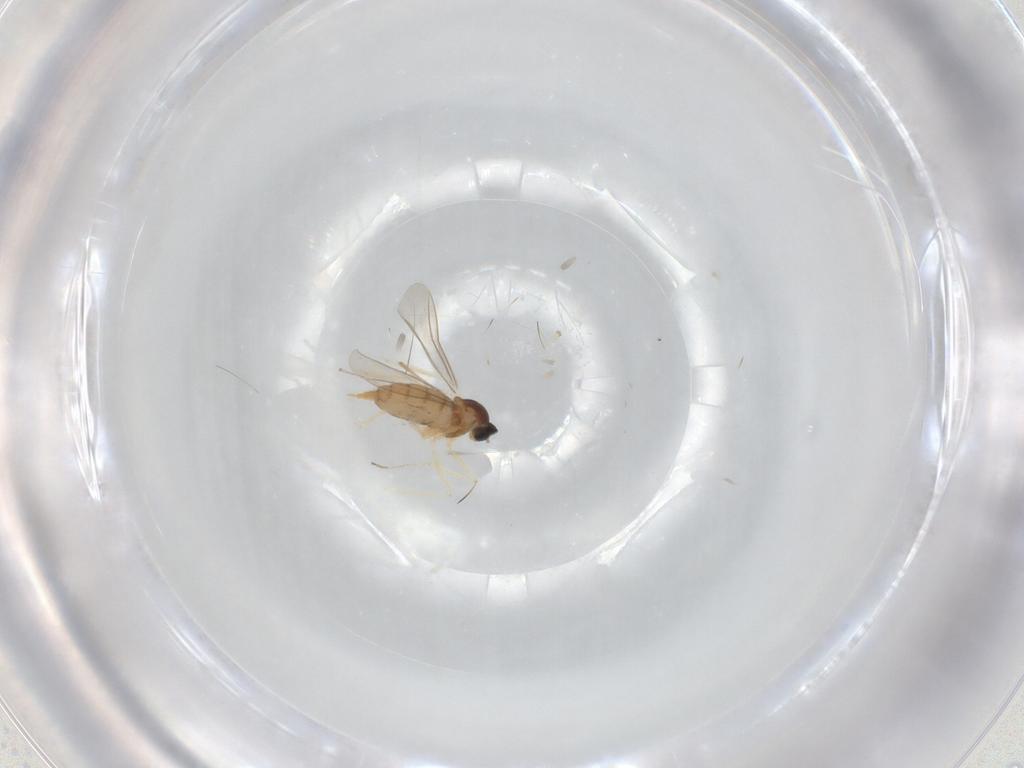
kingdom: Animalia
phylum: Arthropoda
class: Insecta
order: Diptera
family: Cecidomyiidae
